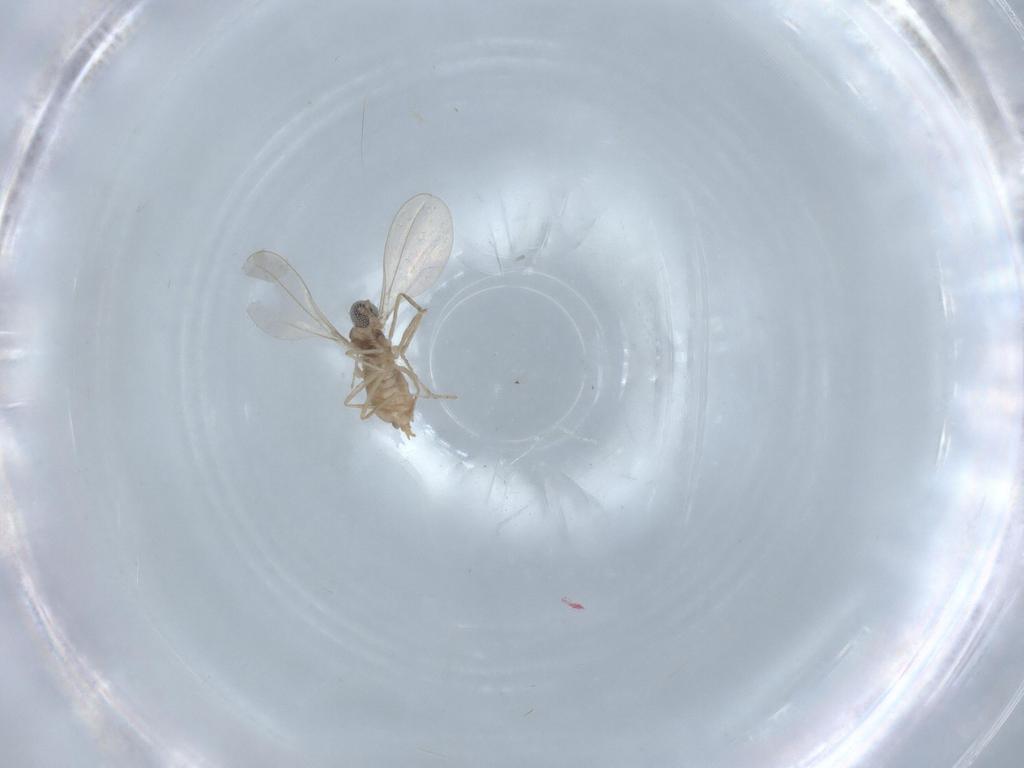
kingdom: Animalia
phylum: Arthropoda
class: Insecta
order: Diptera
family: Cecidomyiidae
